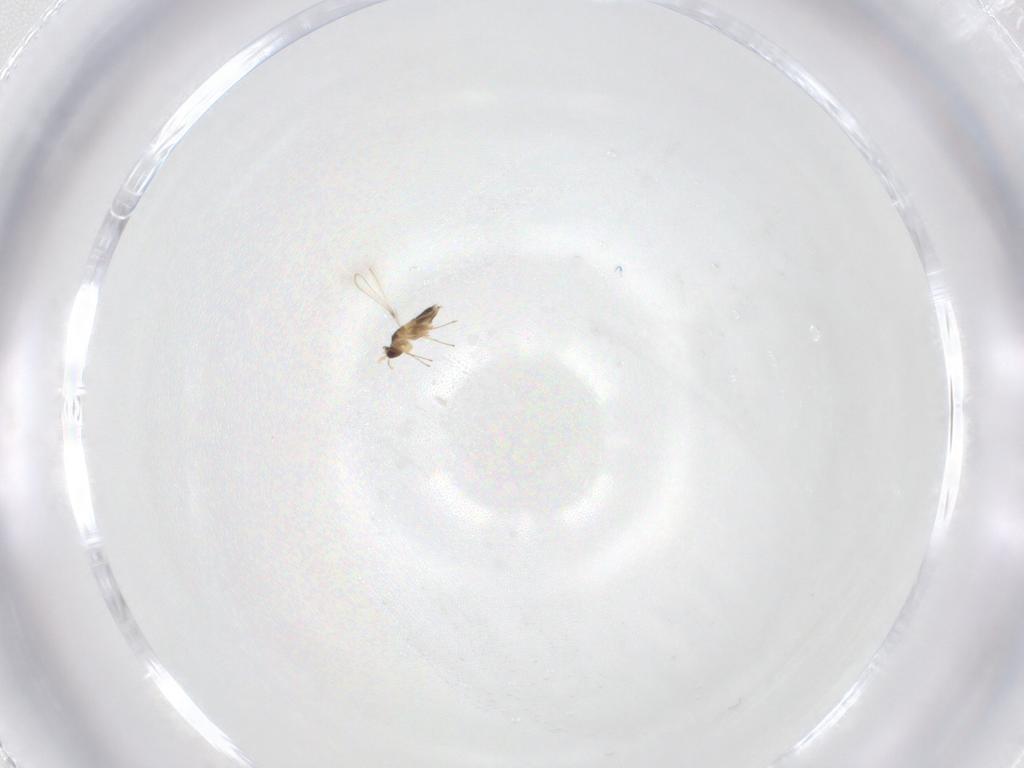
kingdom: Animalia
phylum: Arthropoda
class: Insecta
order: Hymenoptera
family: Mymaridae
